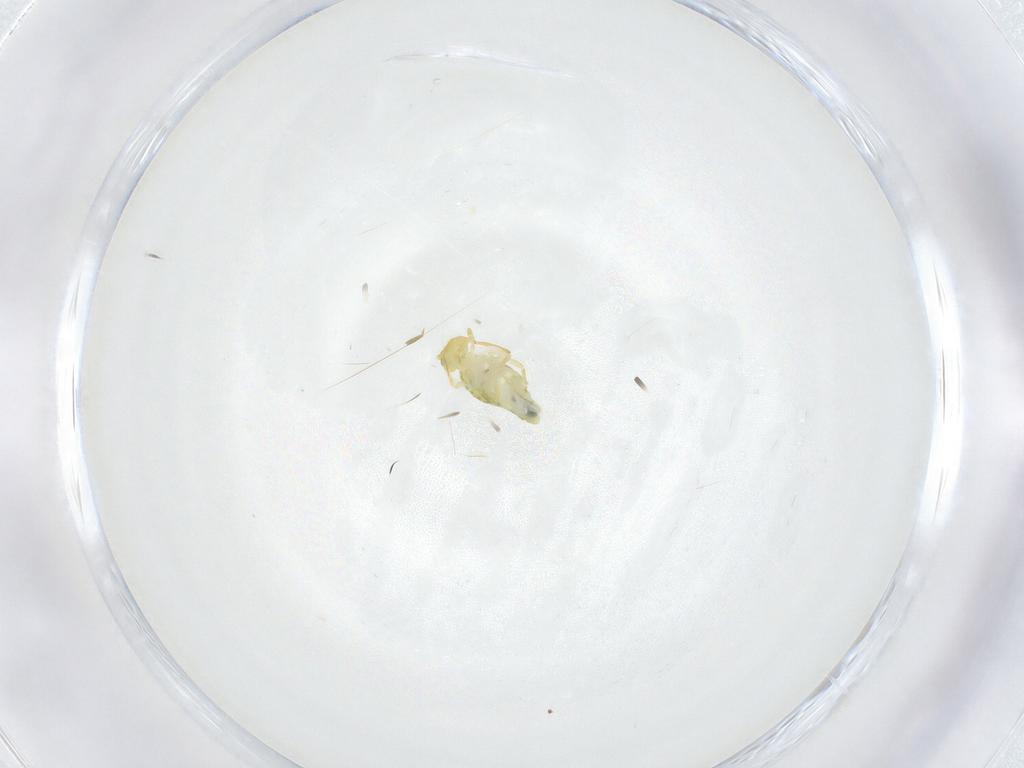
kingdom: Animalia
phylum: Arthropoda
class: Collembola
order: Symphypleona
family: Katiannidae
